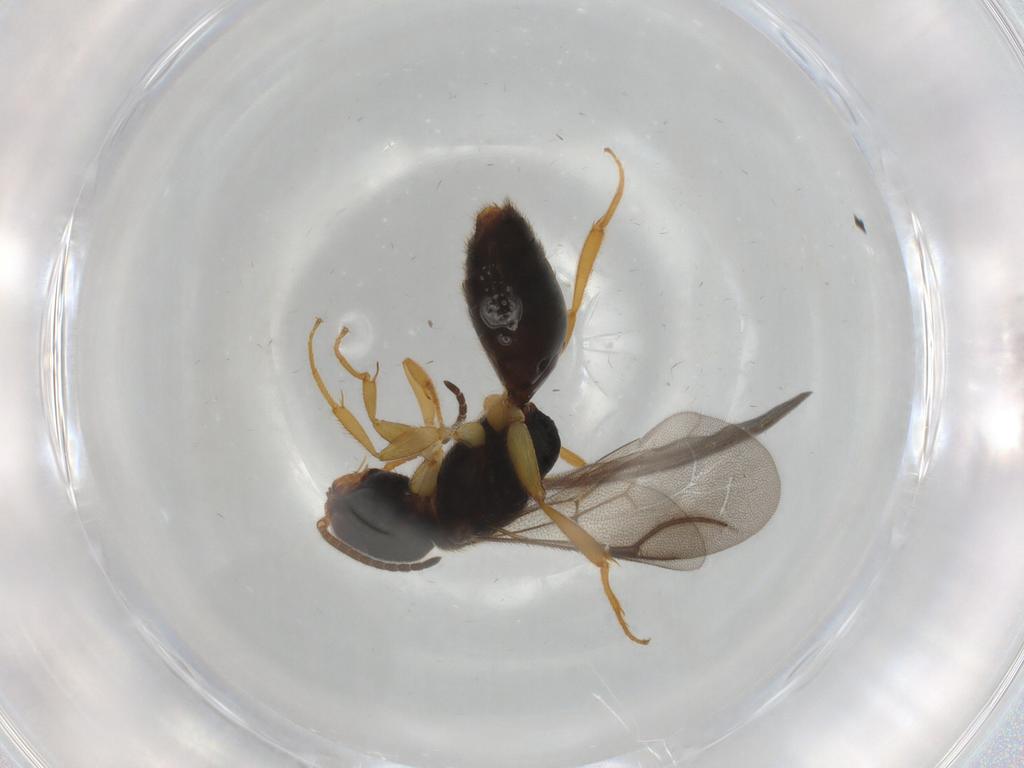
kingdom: Animalia
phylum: Arthropoda
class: Insecta
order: Hymenoptera
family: Bethylidae
